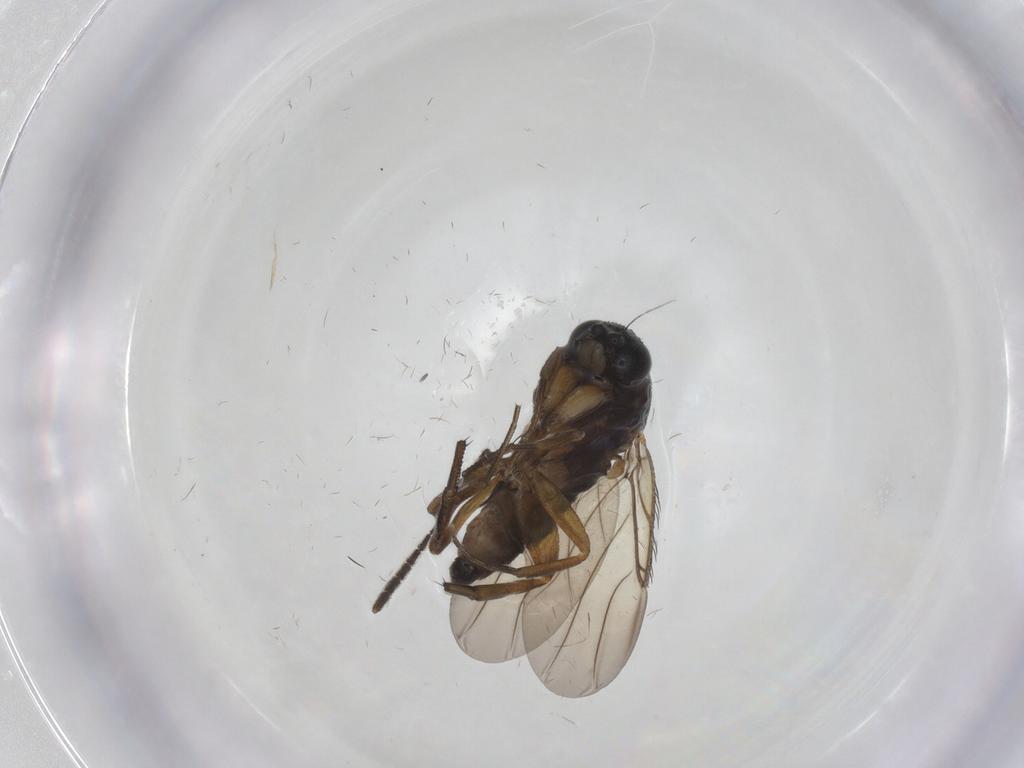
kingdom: Animalia
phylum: Arthropoda
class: Insecta
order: Diptera
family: Phoridae
